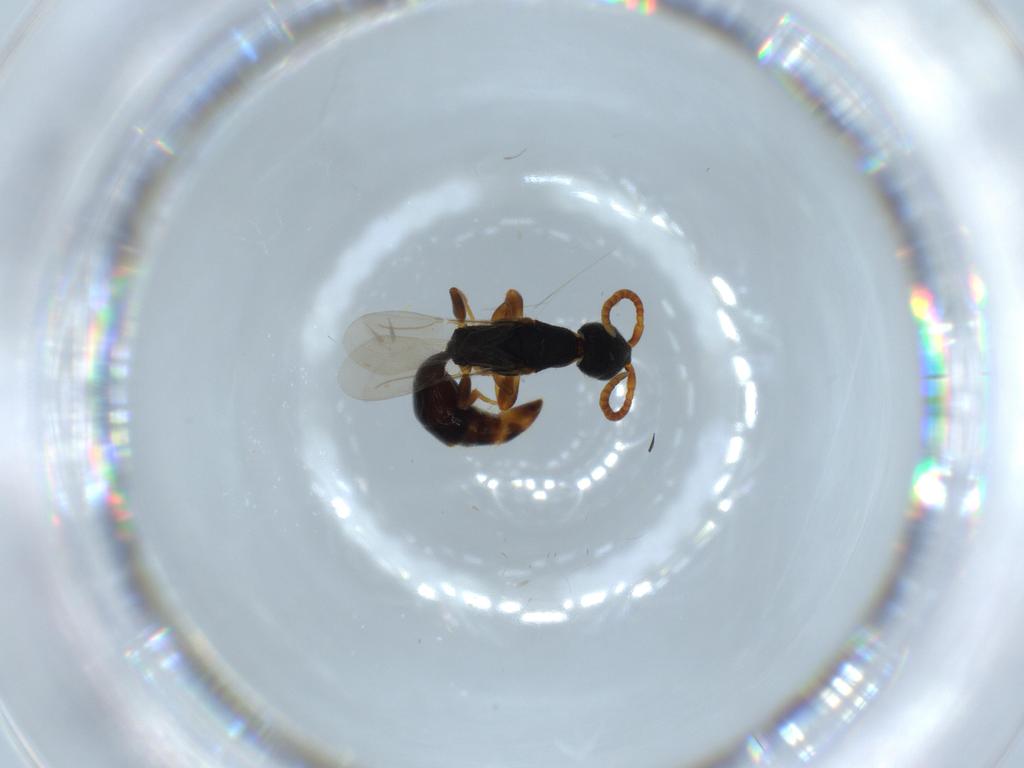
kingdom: Animalia
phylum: Arthropoda
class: Insecta
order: Hymenoptera
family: Bethylidae
